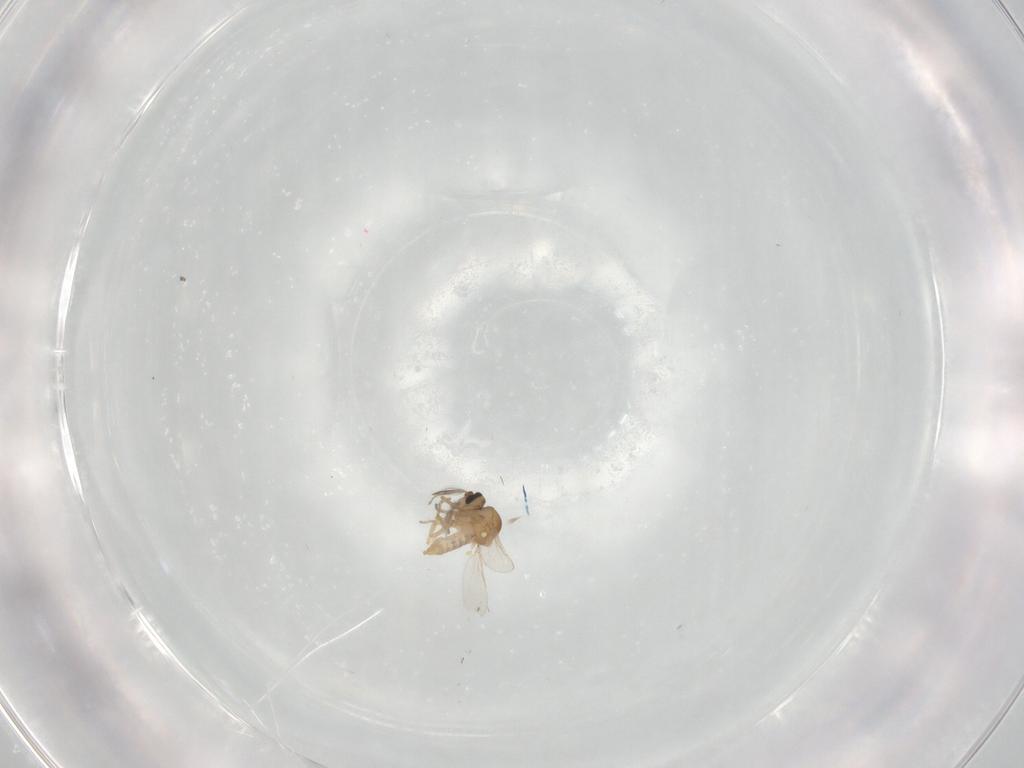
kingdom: Animalia
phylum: Arthropoda
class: Insecta
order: Diptera
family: Ceratopogonidae
